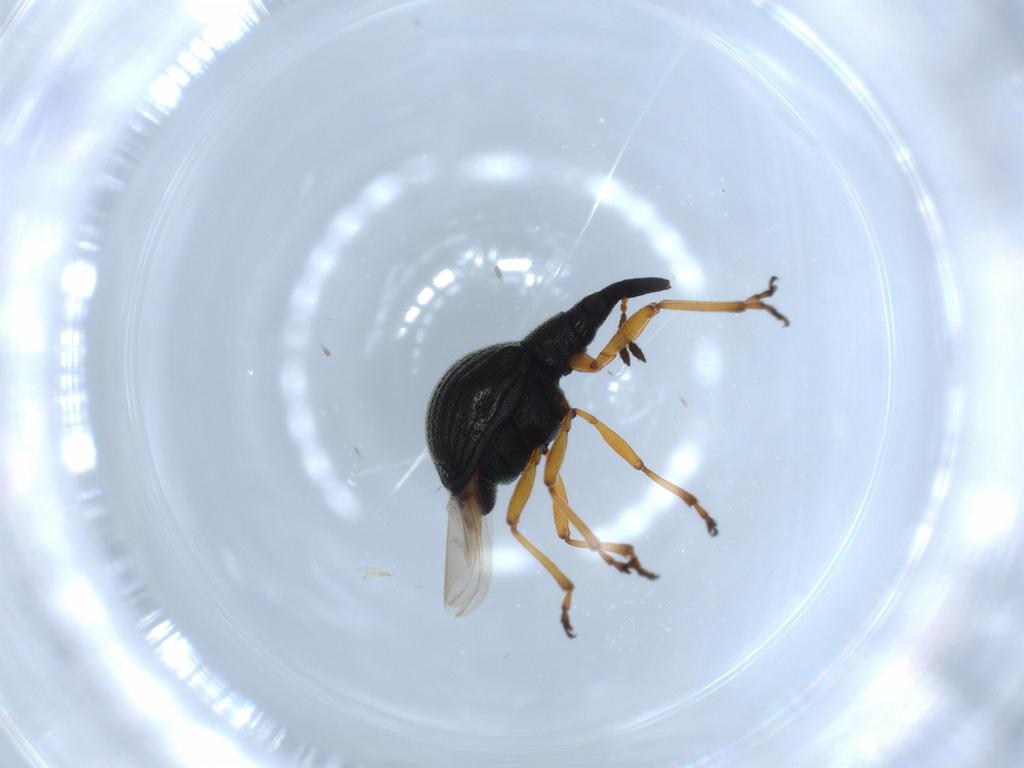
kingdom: Animalia
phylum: Arthropoda
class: Insecta
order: Coleoptera
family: Brentidae
